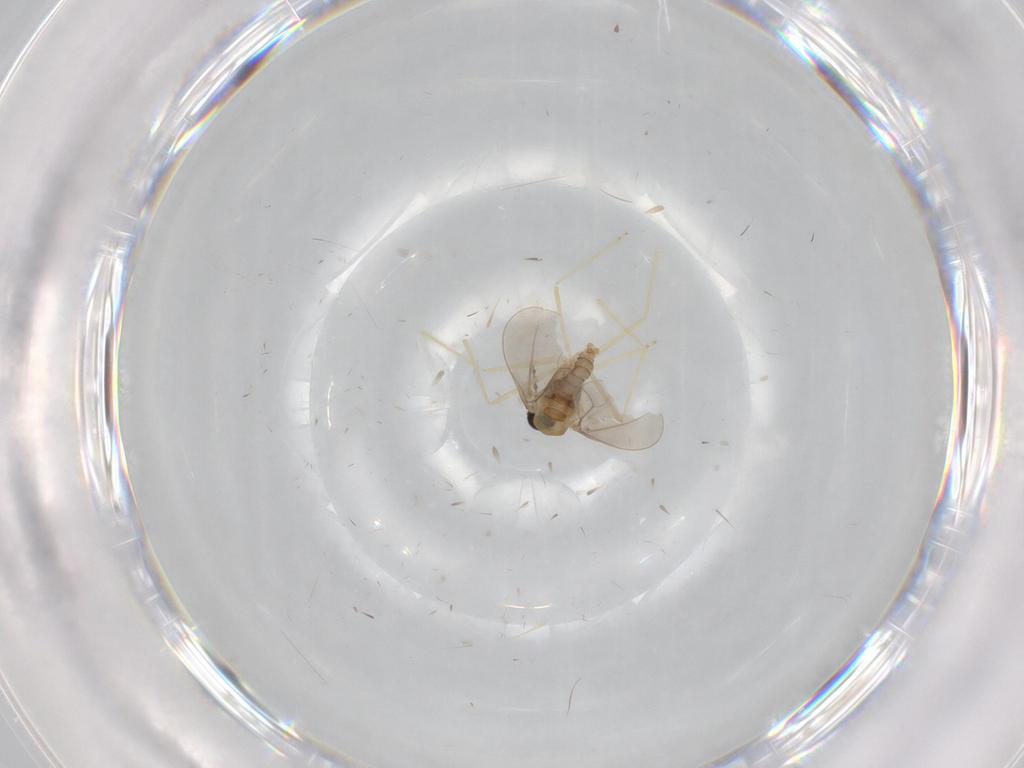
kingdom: Animalia
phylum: Arthropoda
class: Insecta
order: Diptera
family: Cecidomyiidae
